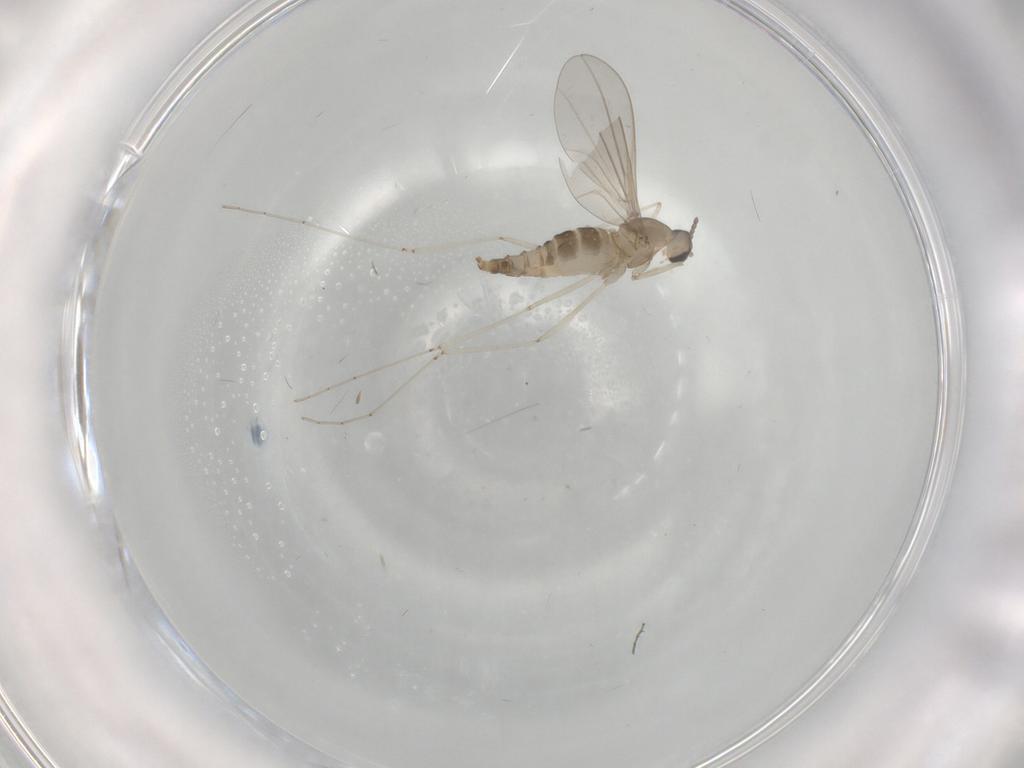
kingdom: Animalia
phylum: Arthropoda
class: Insecta
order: Diptera
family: Cecidomyiidae
